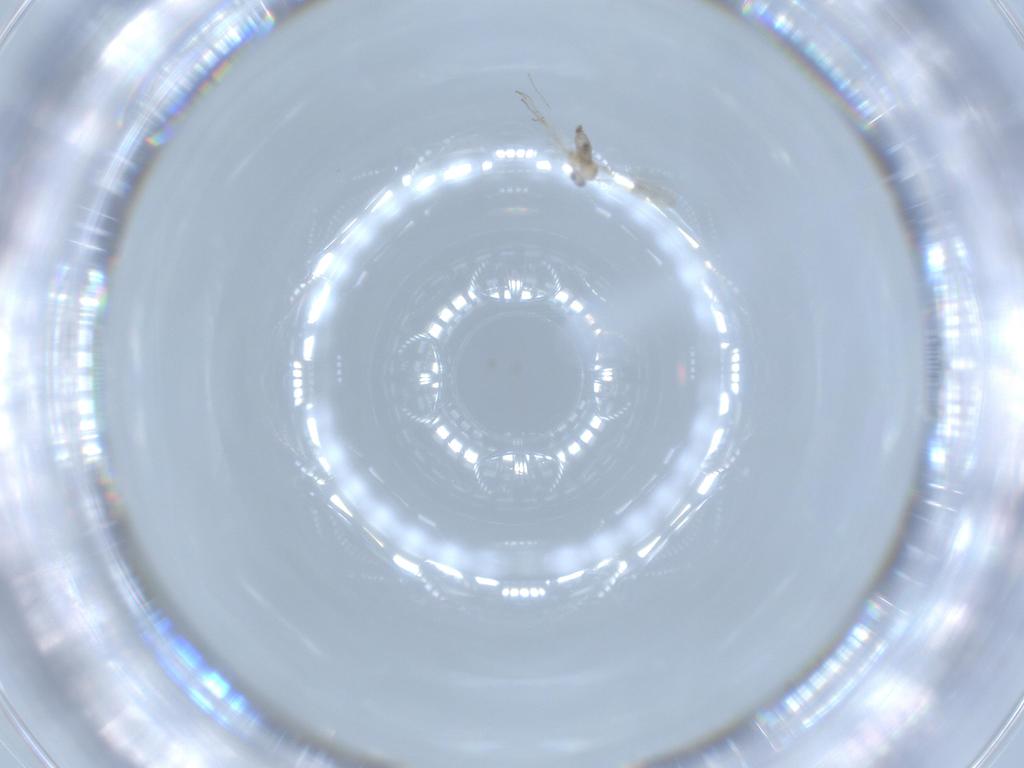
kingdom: Animalia
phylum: Arthropoda
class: Insecta
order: Diptera
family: Cecidomyiidae
